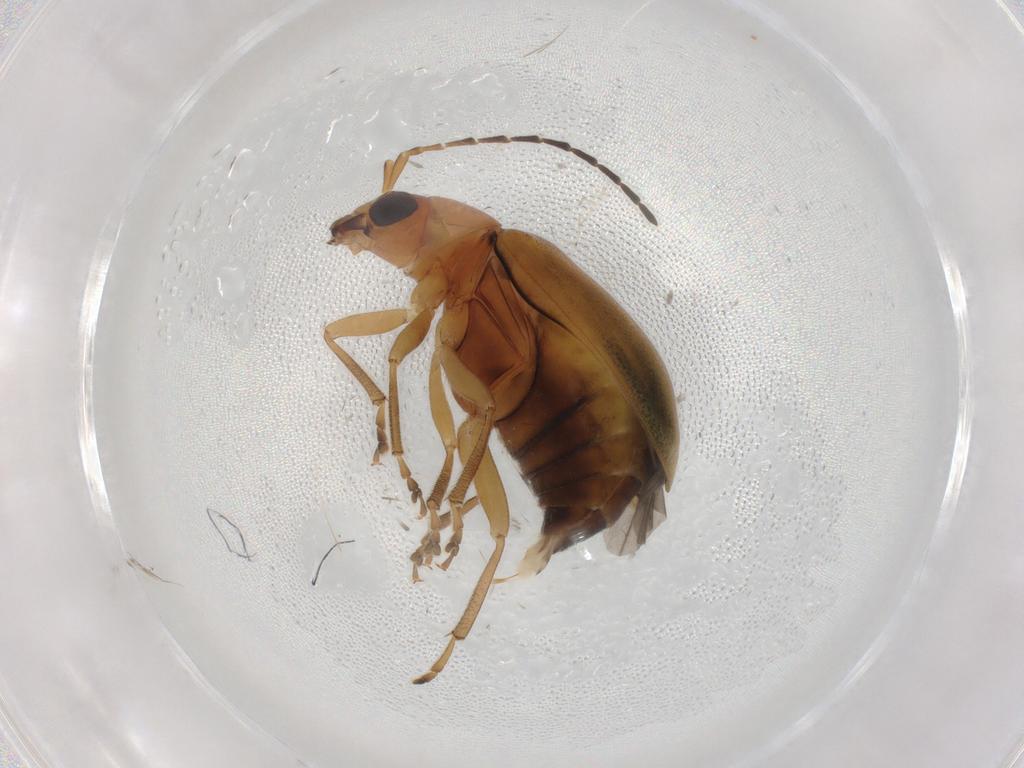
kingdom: Animalia
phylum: Arthropoda
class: Insecta
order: Coleoptera
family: Chrysomelidae
